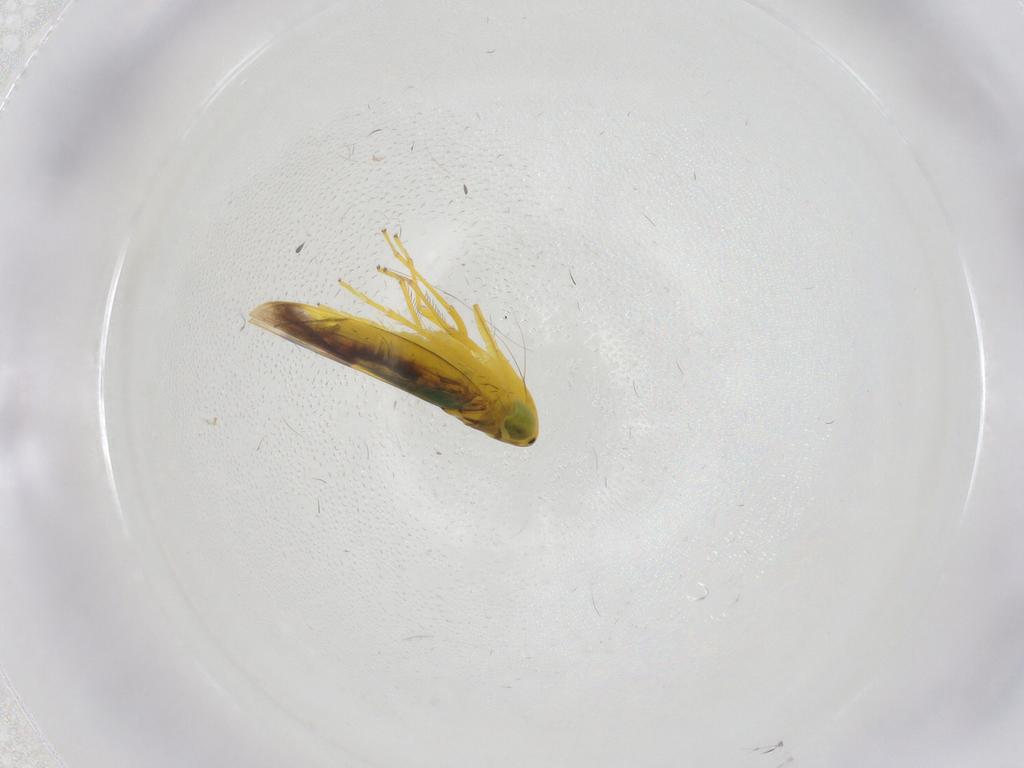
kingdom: Animalia
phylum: Arthropoda
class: Insecta
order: Hemiptera
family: Cicadellidae
